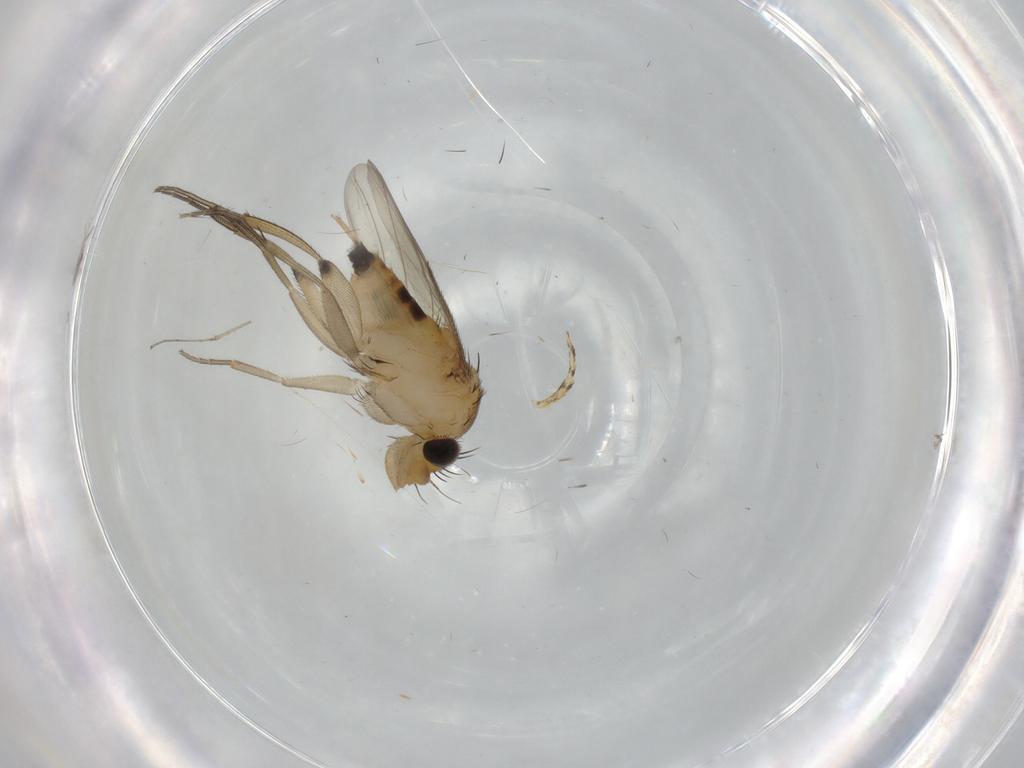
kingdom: Animalia
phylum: Arthropoda
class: Insecta
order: Diptera
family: Phoridae
